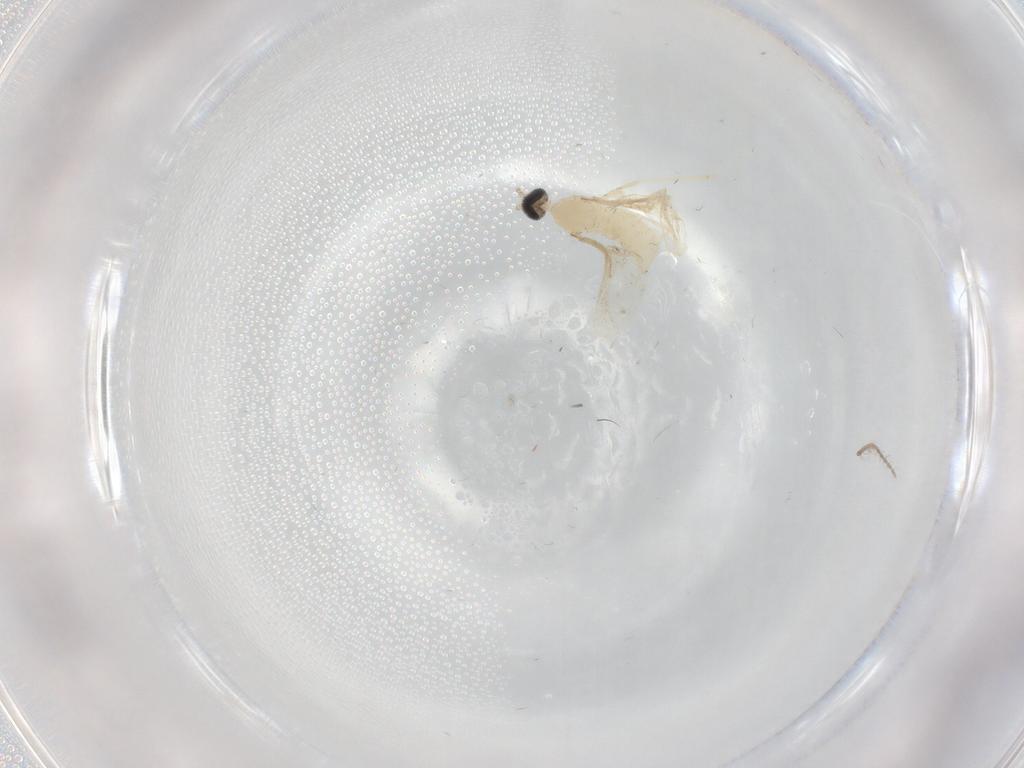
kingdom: Animalia
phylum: Arthropoda
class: Insecta
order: Diptera
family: Cecidomyiidae
